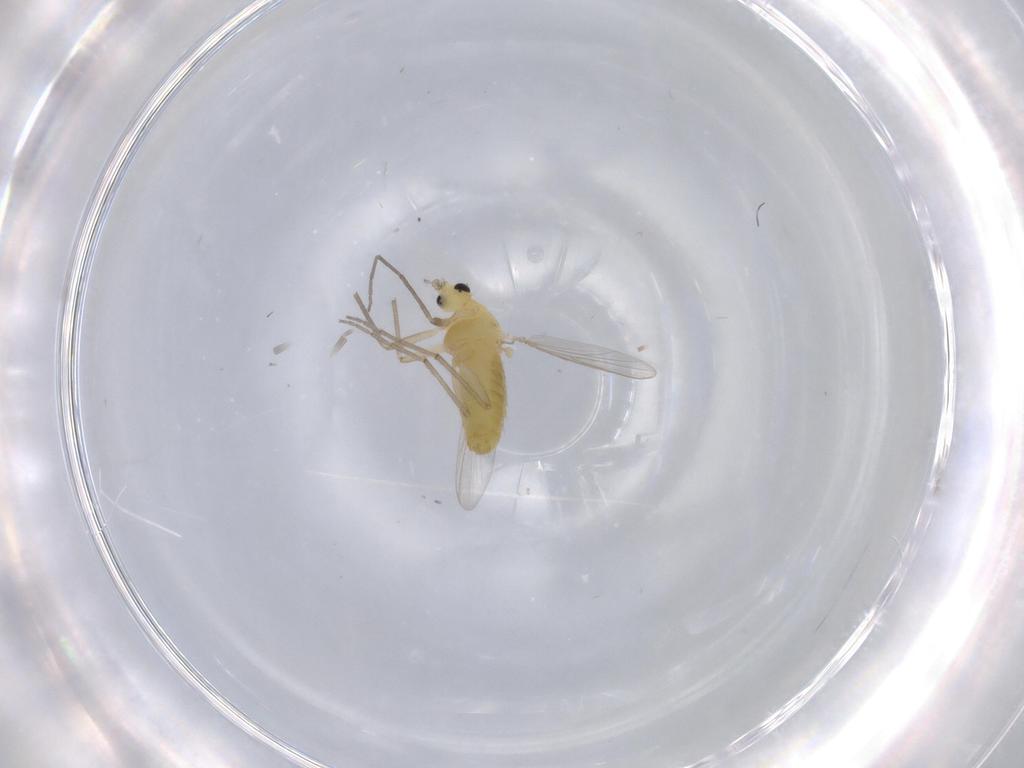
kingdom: Animalia
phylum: Arthropoda
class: Insecta
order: Diptera
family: Chironomidae
